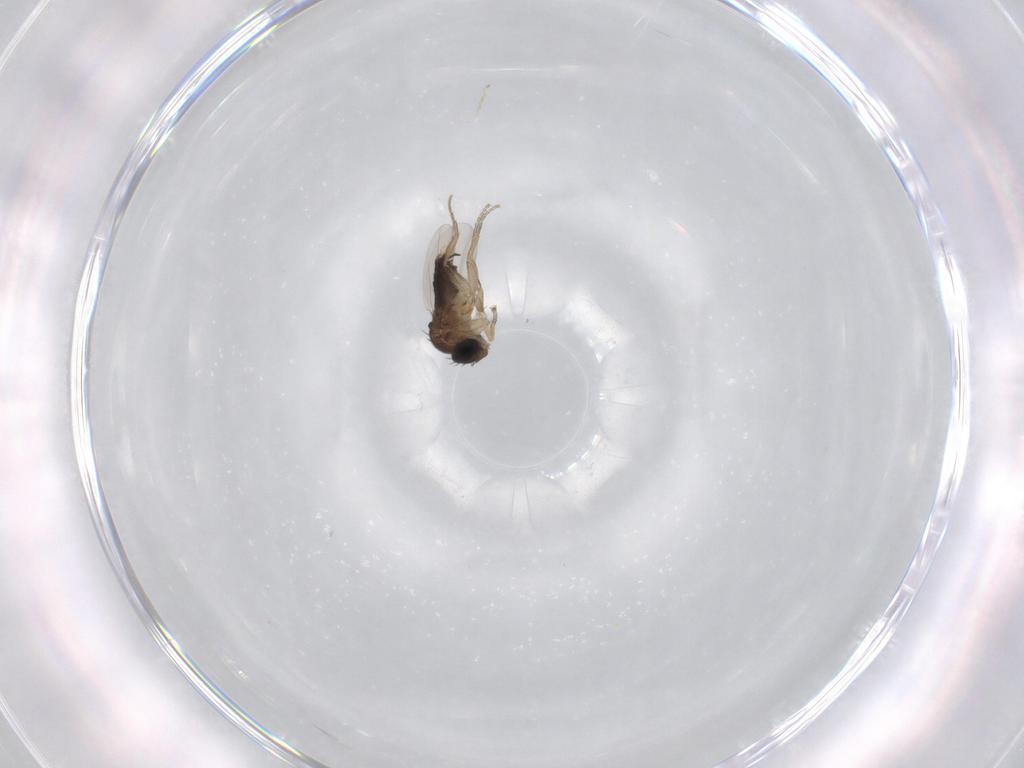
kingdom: Animalia
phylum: Arthropoda
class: Insecta
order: Diptera
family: Phoridae
